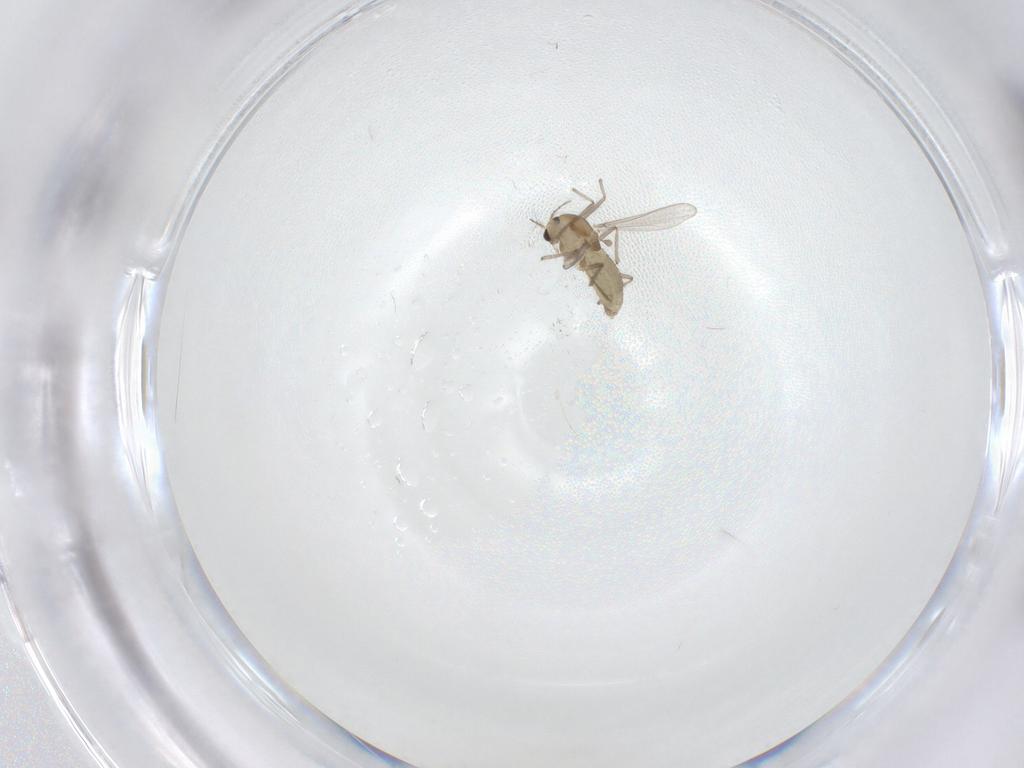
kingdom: Animalia
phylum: Arthropoda
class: Insecta
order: Diptera
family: Chironomidae
